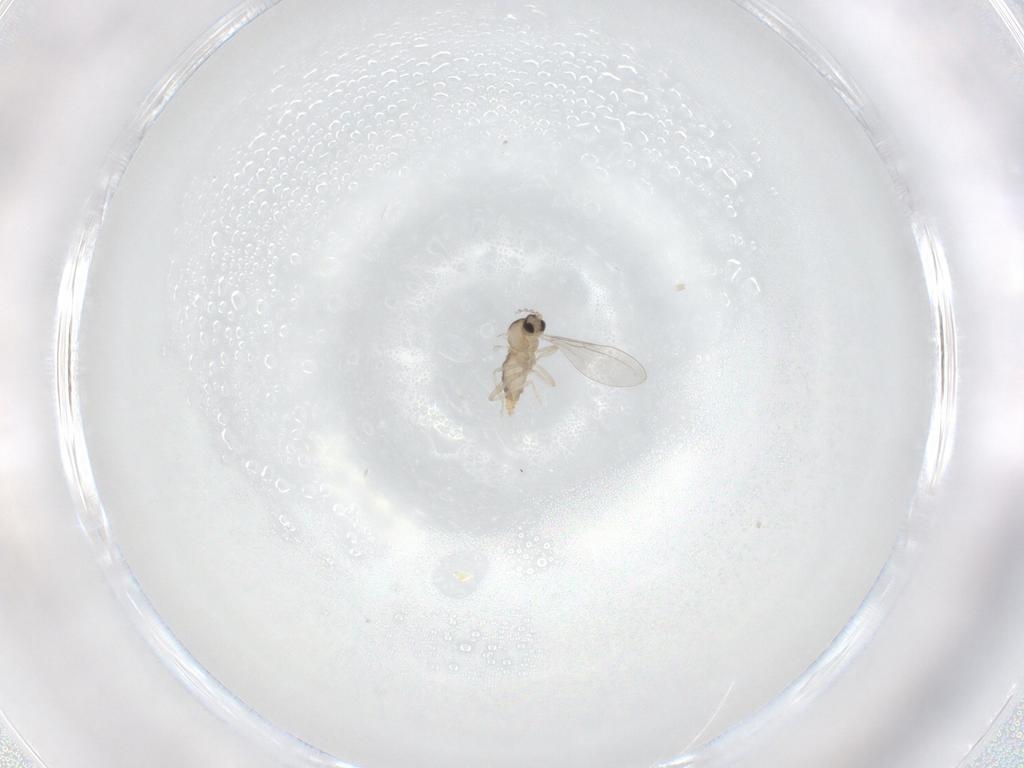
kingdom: Animalia
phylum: Arthropoda
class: Insecta
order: Diptera
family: Cecidomyiidae
